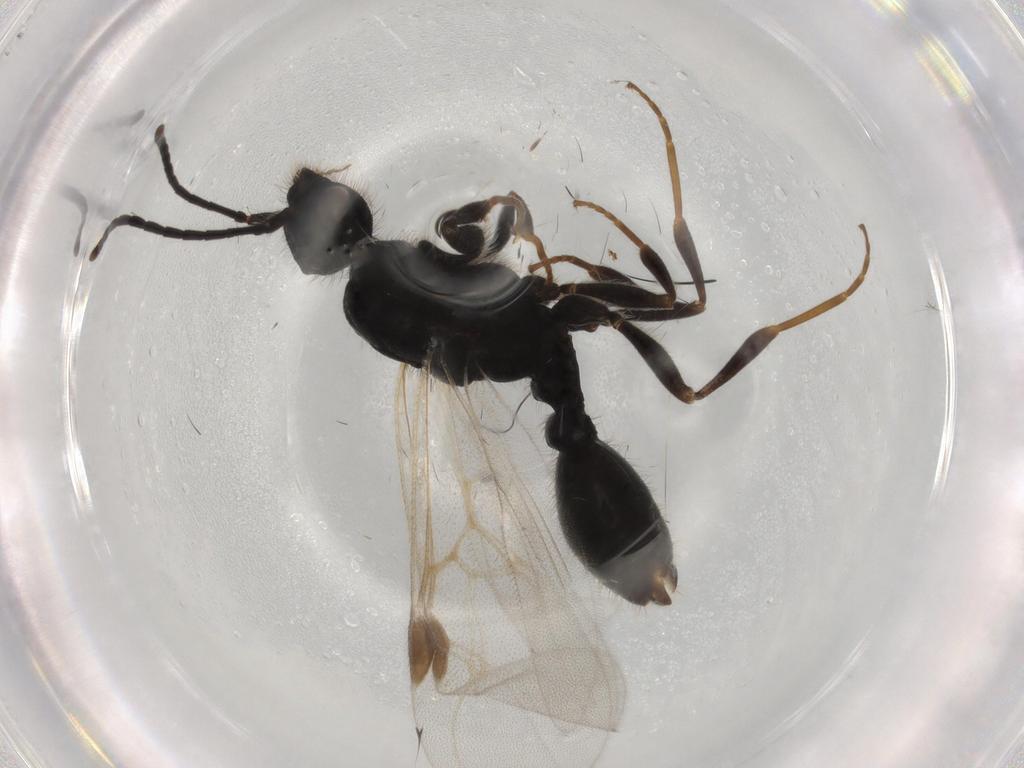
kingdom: Animalia
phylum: Arthropoda
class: Insecta
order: Hymenoptera
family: Formicidae
